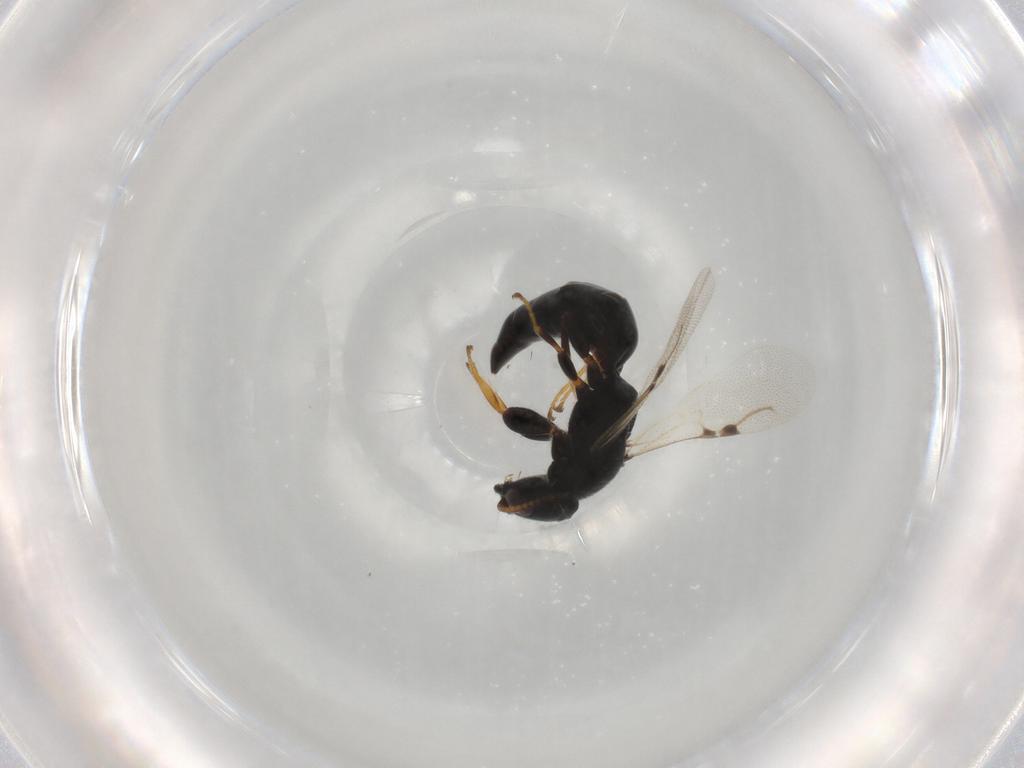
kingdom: Animalia
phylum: Arthropoda
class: Insecta
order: Hymenoptera
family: Bethylidae
